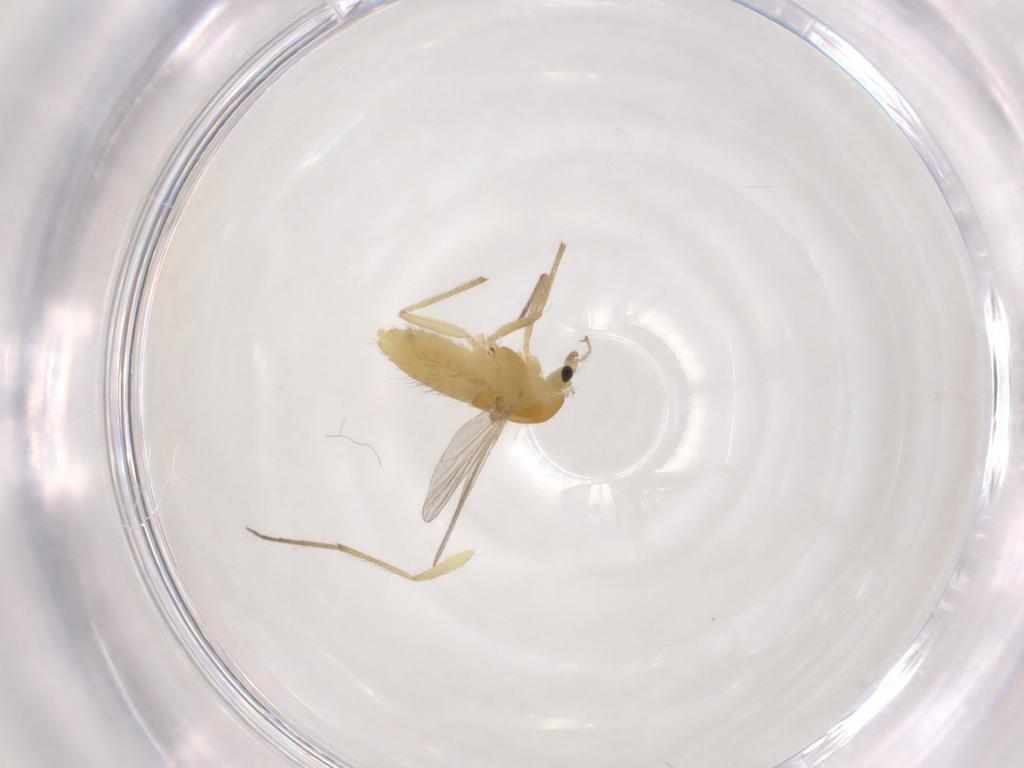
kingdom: Animalia
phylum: Arthropoda
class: Insecta
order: Diptera
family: Chironomidae
